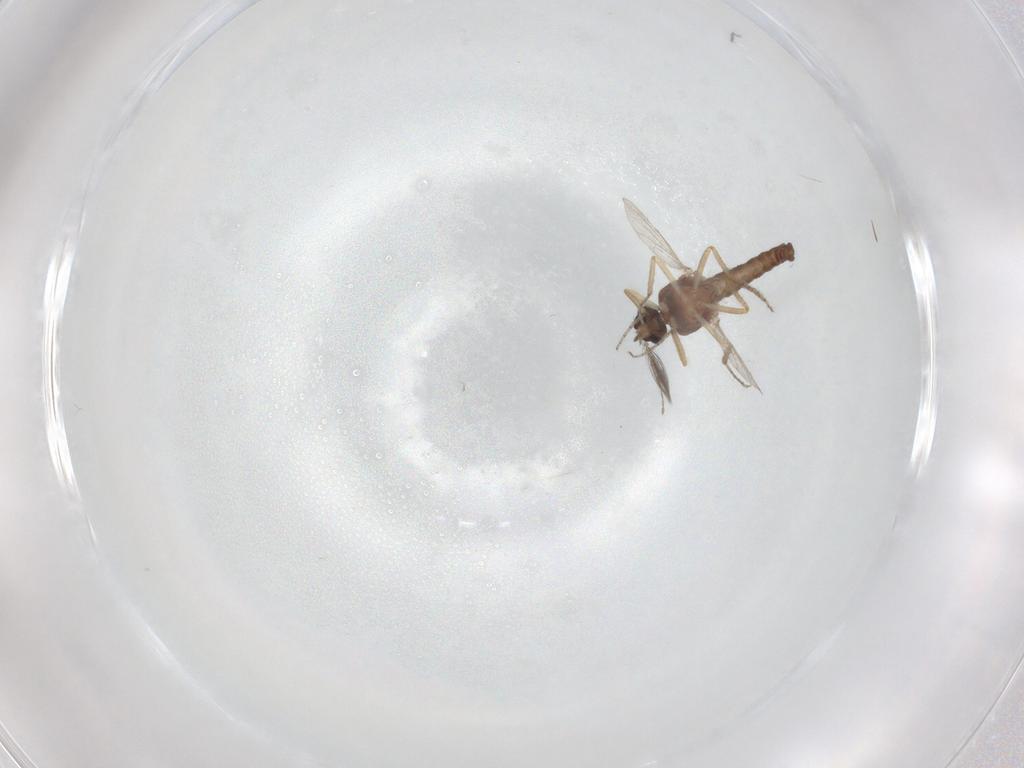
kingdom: Animalia
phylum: Arthropoda
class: Insecta
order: Diptera
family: Ceratopogonidae
